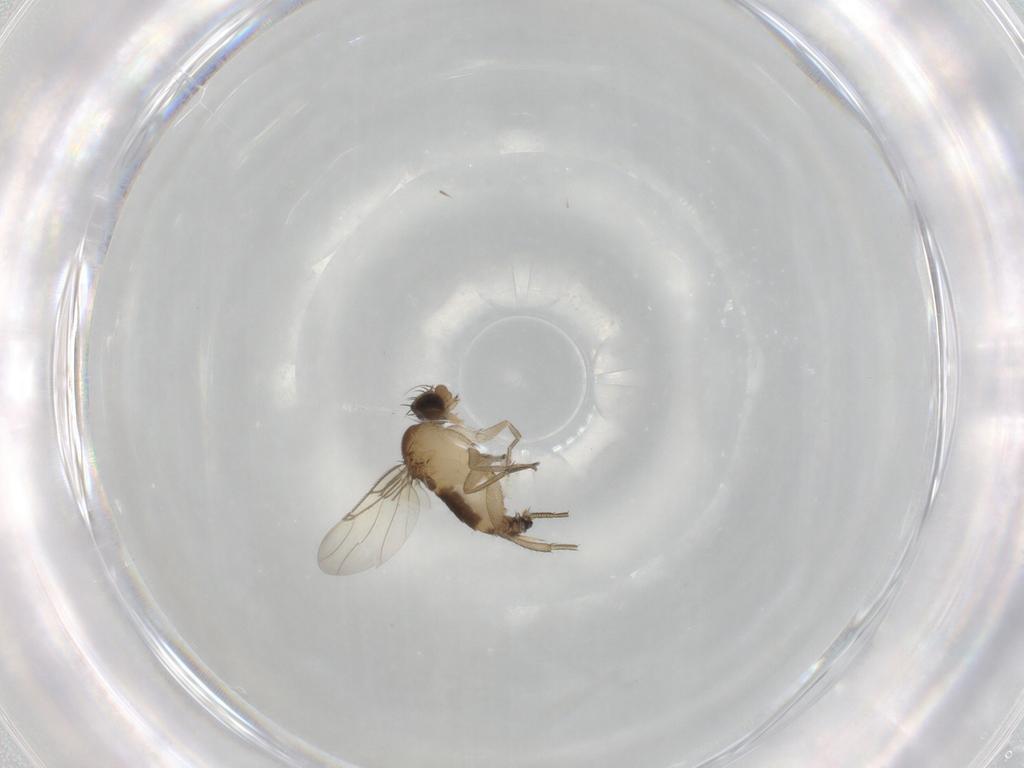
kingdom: Animalia
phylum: Arthropoda
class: Insecta
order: Diptera
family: Phoridae
